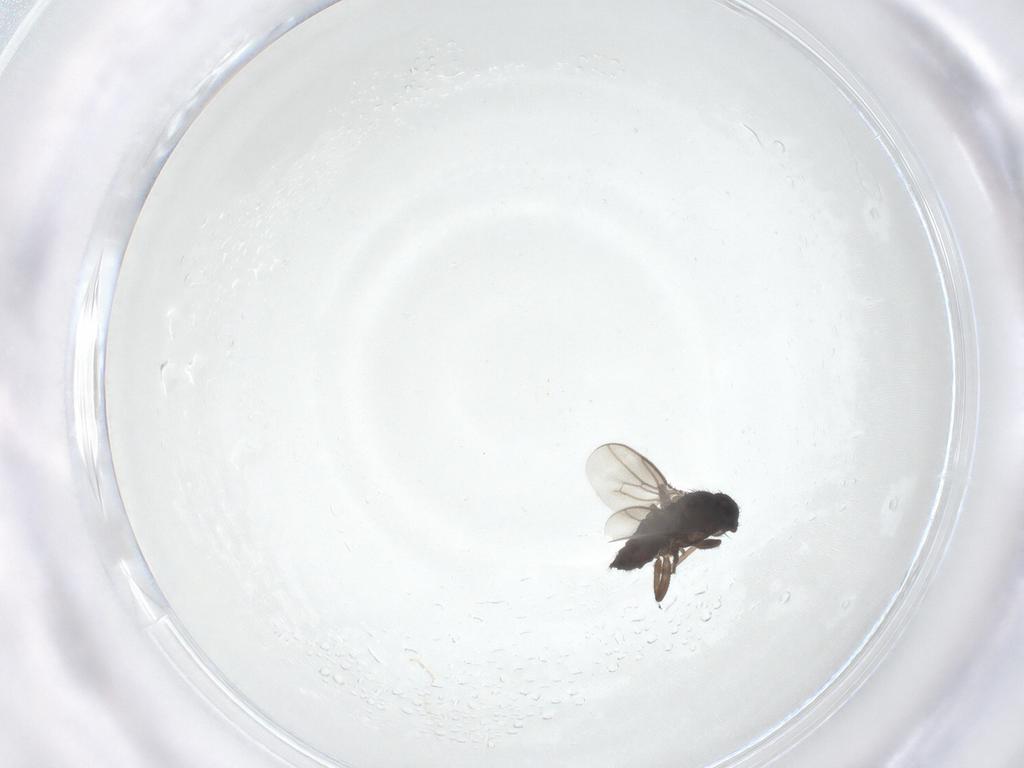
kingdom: Animalia
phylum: Arthropoda
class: Insecta
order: Diptera
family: Chironomidae
